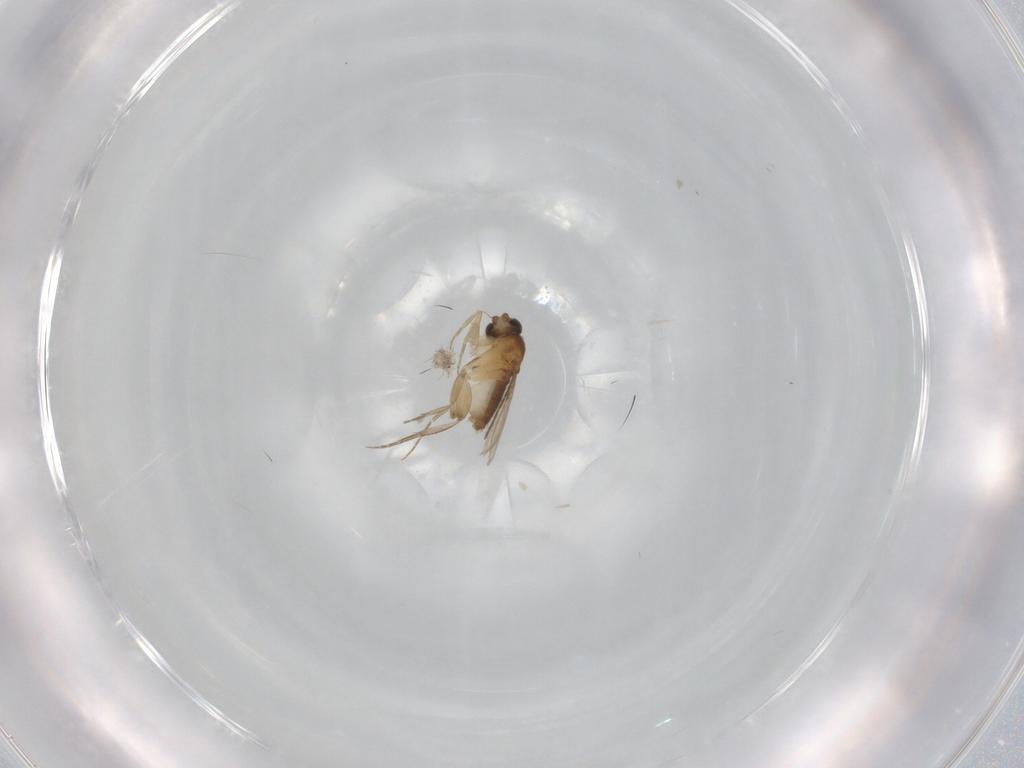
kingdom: Animalia
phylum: Arthropoda
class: Insecta
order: Diptera
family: Phoridae
